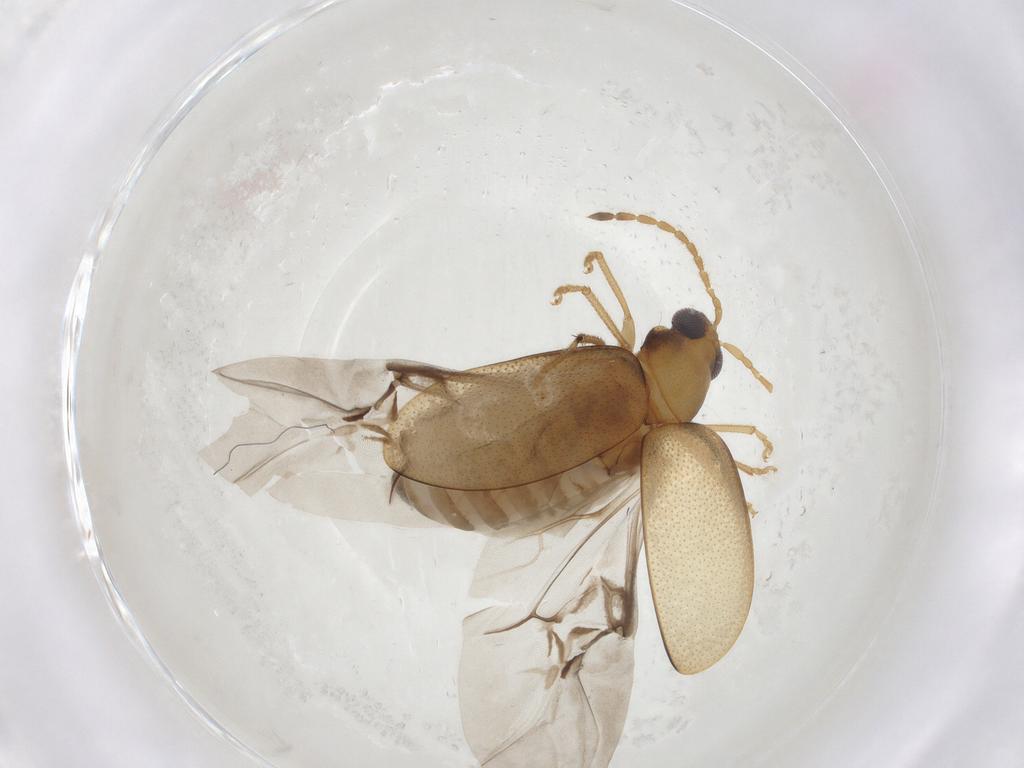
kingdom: Animalia
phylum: Arthropoda
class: Insecta
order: Coleoptera
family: Chrysomelidae
